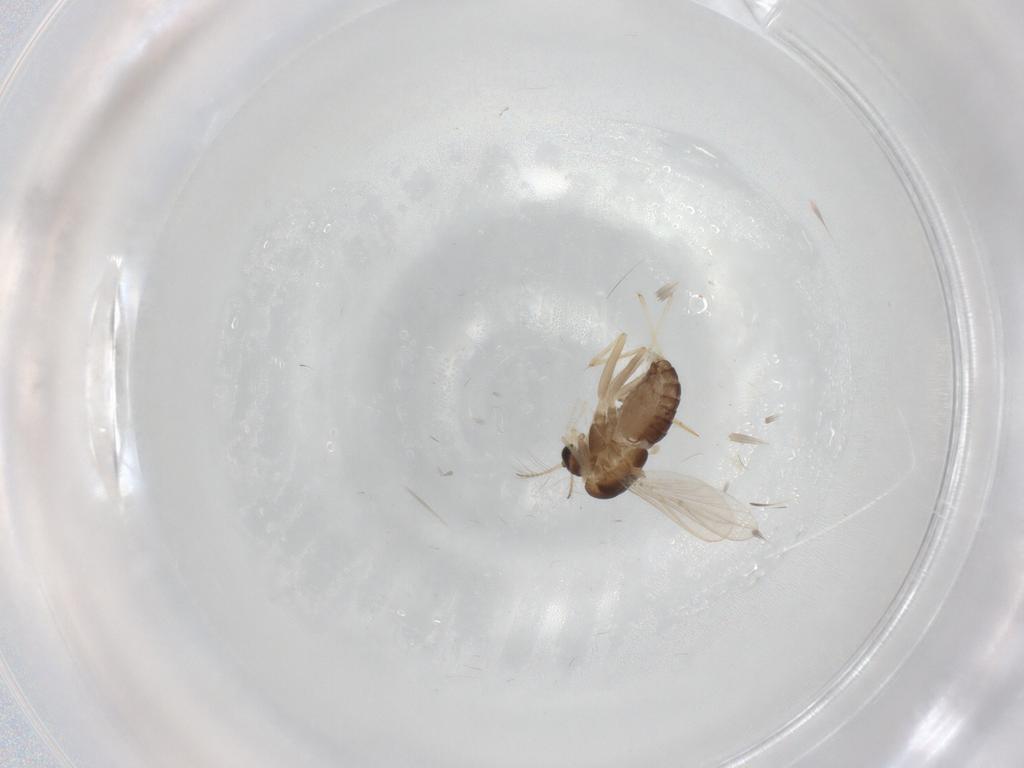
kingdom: Animalia
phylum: Arthropoda
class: Insecta
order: Diptera
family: Chironomidae
